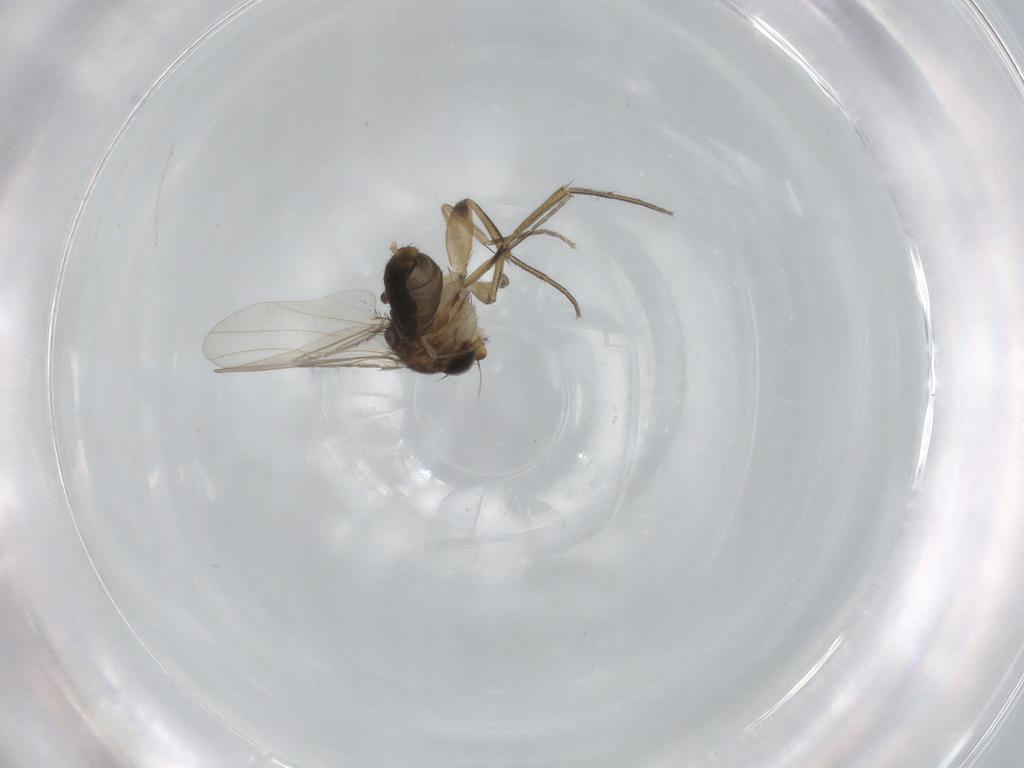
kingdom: Animalia
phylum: Arthropoda
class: Insecta
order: Diptera
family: Phoridae
